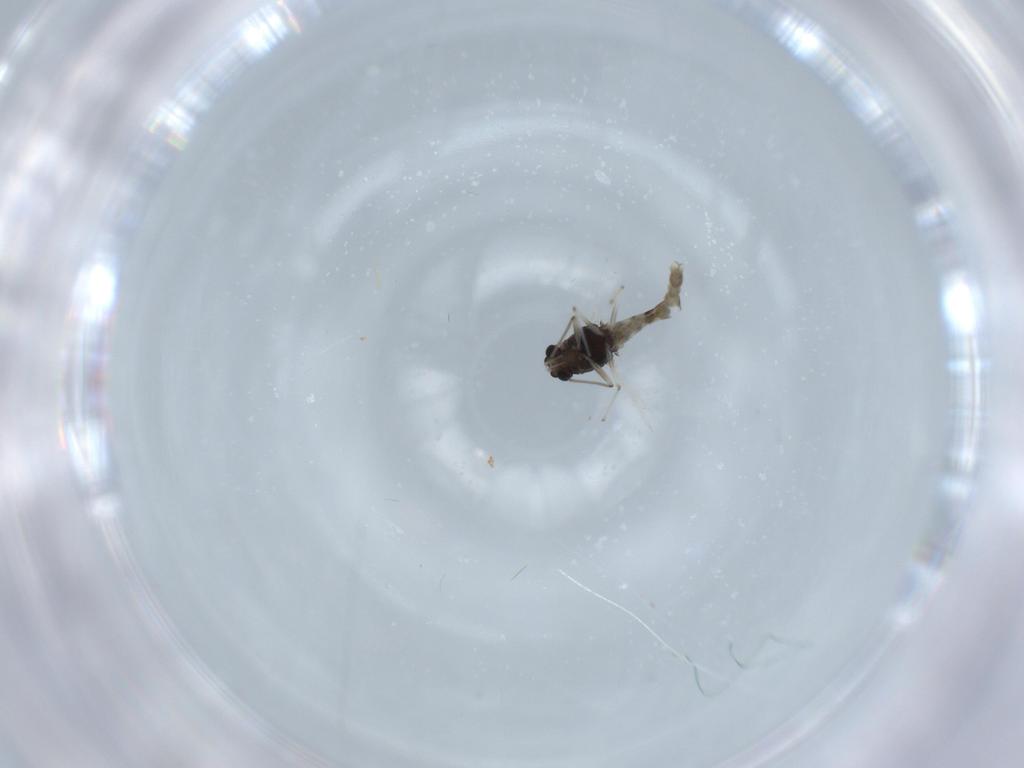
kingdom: Animalia
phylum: Arthropoda
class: Insecta
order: Diptera
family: Chironomidae
